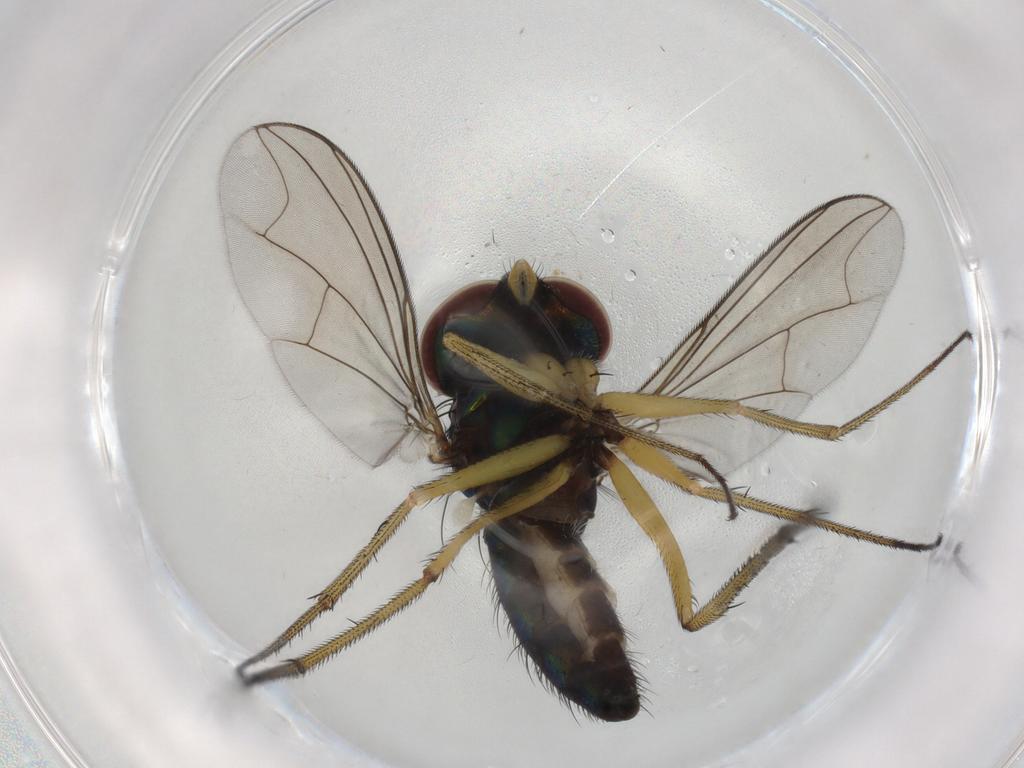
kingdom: Animalia
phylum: Arthropoda
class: Insecta
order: Diptera
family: Dolichopodidae
